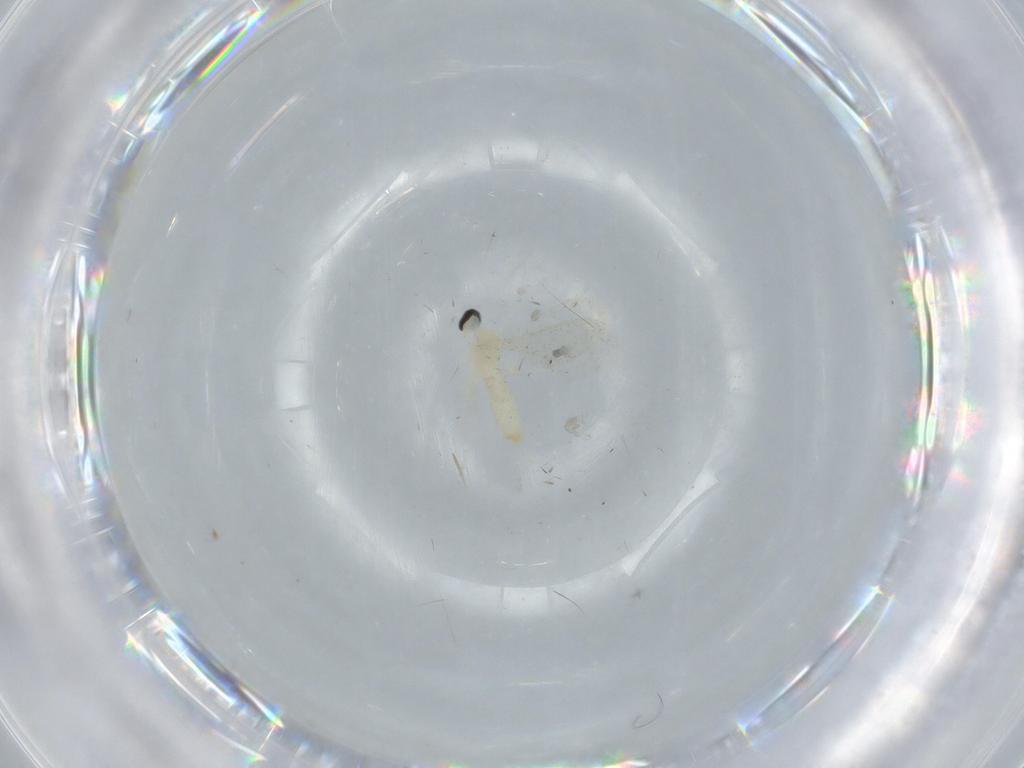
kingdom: Animalia
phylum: Arthropoda
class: Insecta
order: Diptera
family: Cecidomyiidae
